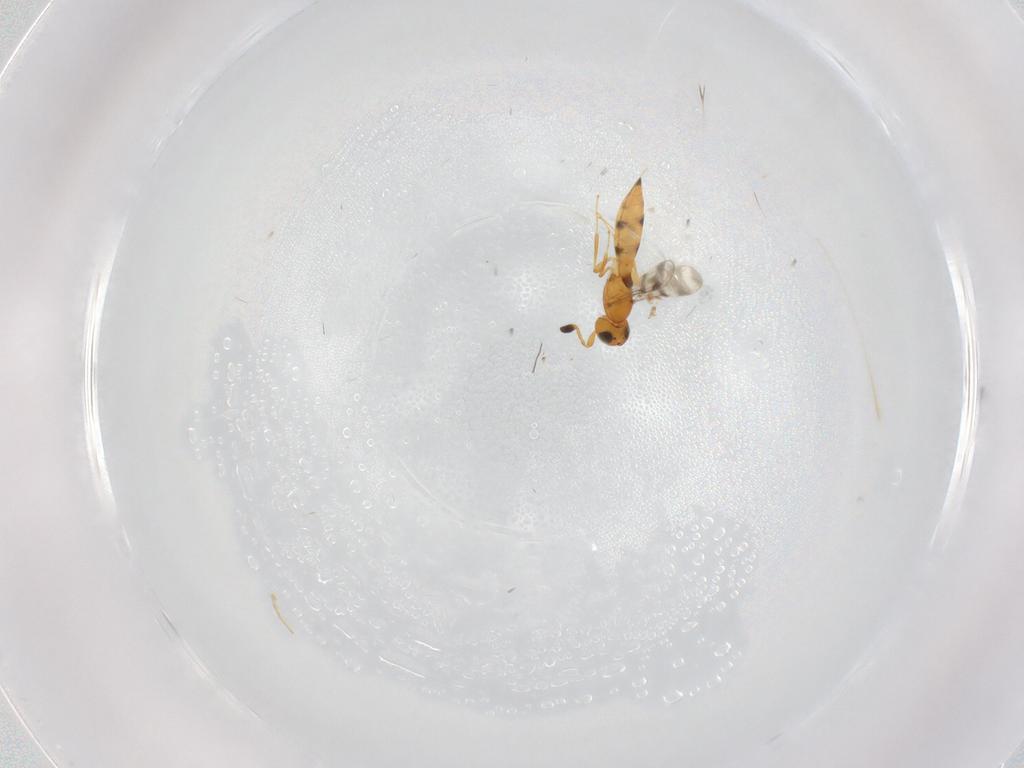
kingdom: Animalia
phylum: Arthropoda
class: Insecta
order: Hymenoptera
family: Scelionidae
